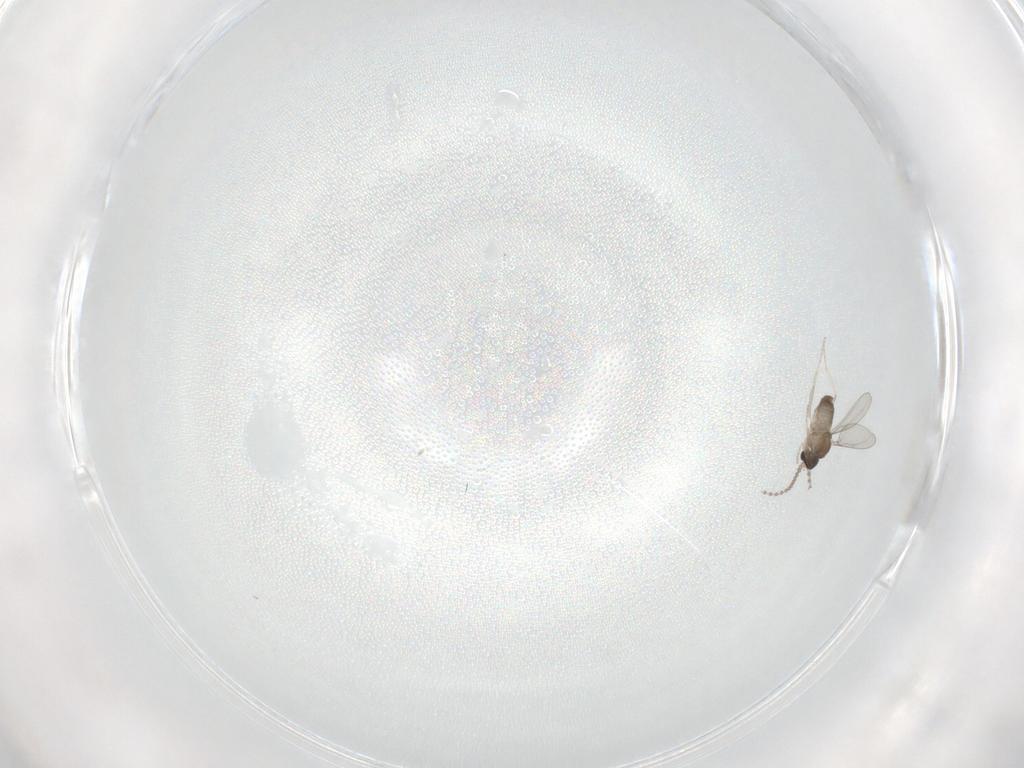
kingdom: Animalia
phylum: Arthropoda
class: Insecta
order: Diptera
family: Cecidomyiidae
